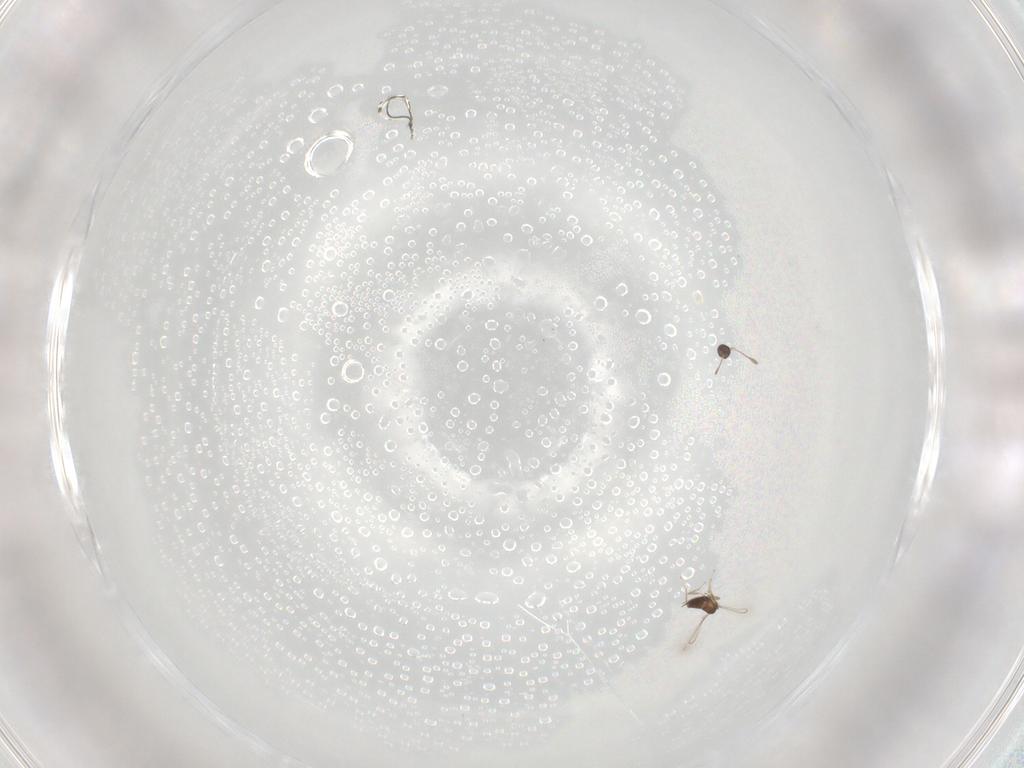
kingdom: Animalia
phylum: Arthropoda
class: Insecta
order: Hymenoptera
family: Mymaridae
